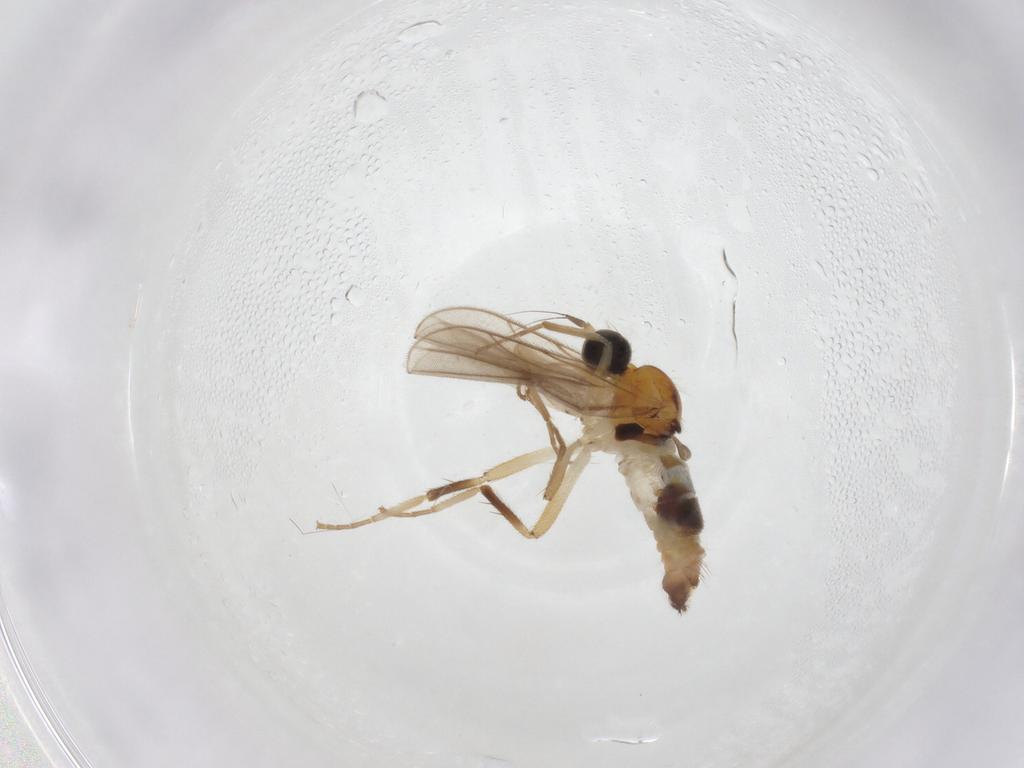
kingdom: Animalia
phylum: Arthropoda
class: Insecta
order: Diptera
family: Hybotidae
